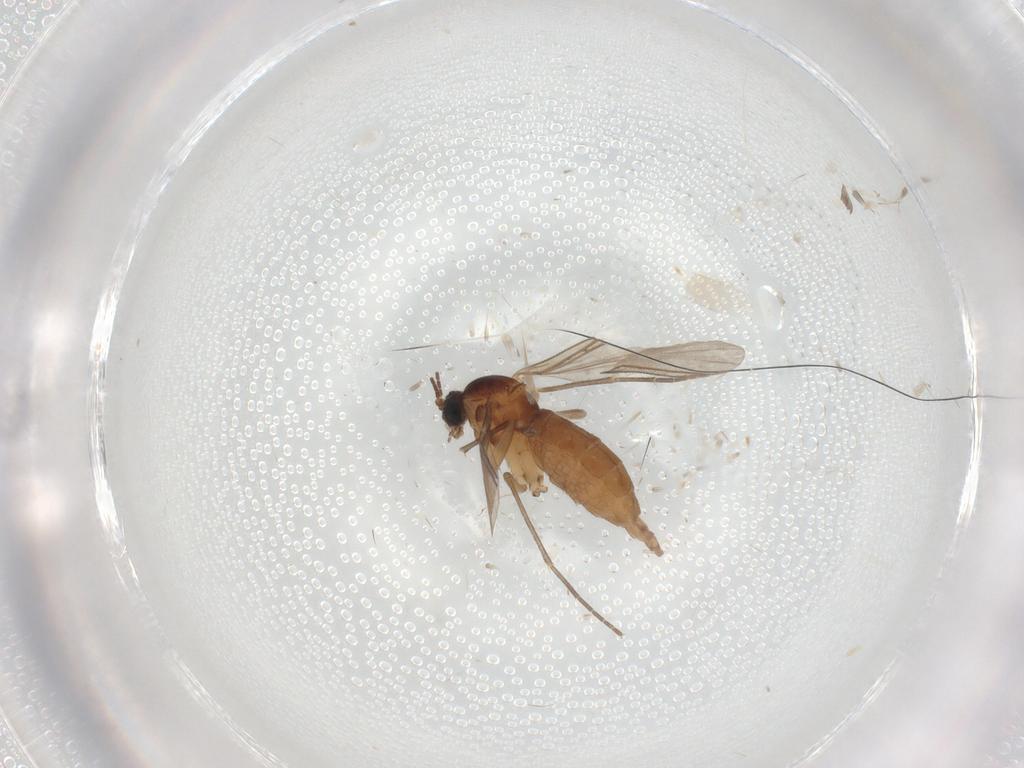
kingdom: Animalia
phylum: Arthropoda
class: Insecta
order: Diptera
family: Sciaridae
